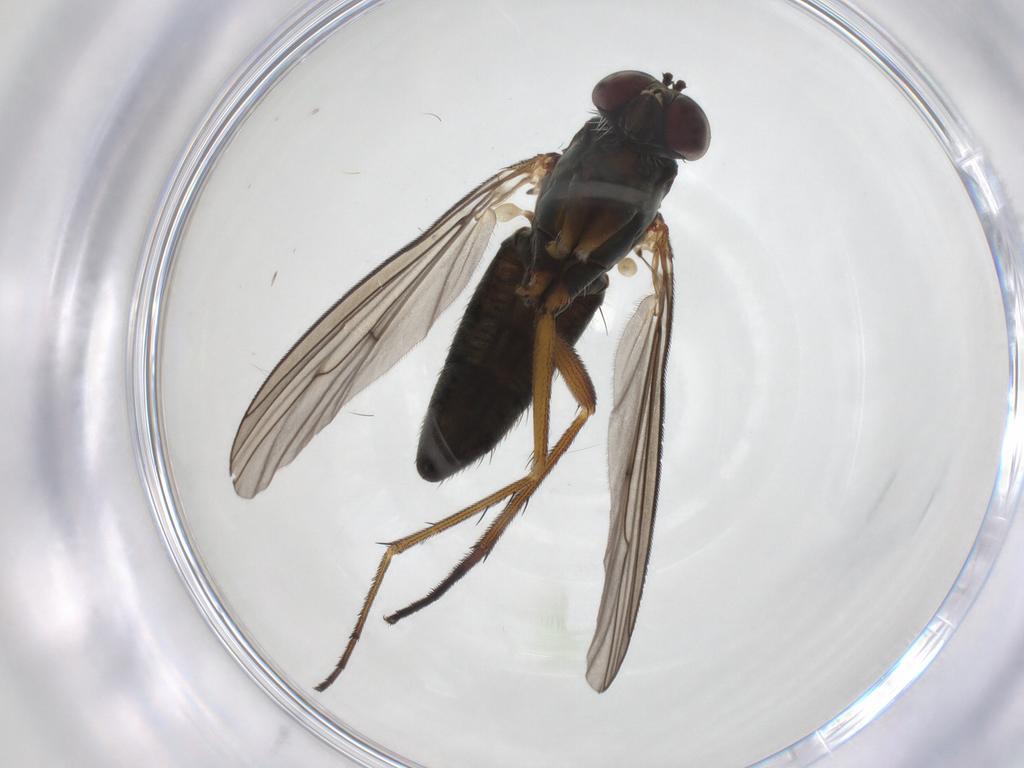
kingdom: Animalia
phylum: Arthropoda
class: Insecta
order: Diptera
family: Dolichopodidae
